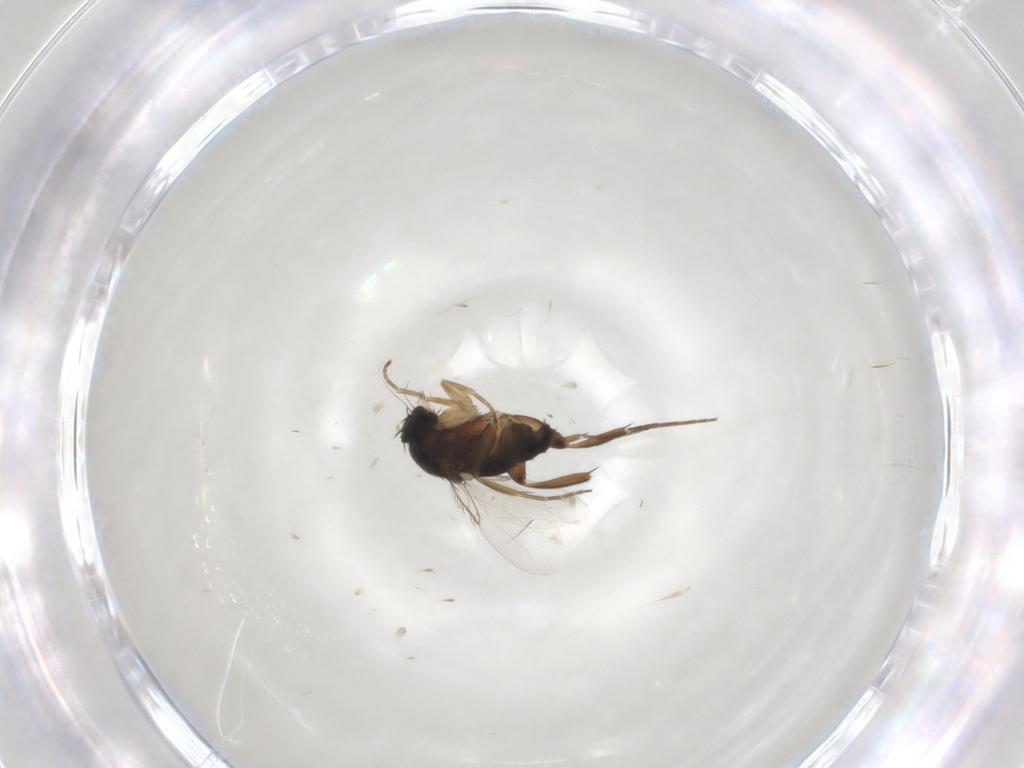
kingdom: Animalia
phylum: Arthropoda
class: Insecta
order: Diptera
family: Phoridae
